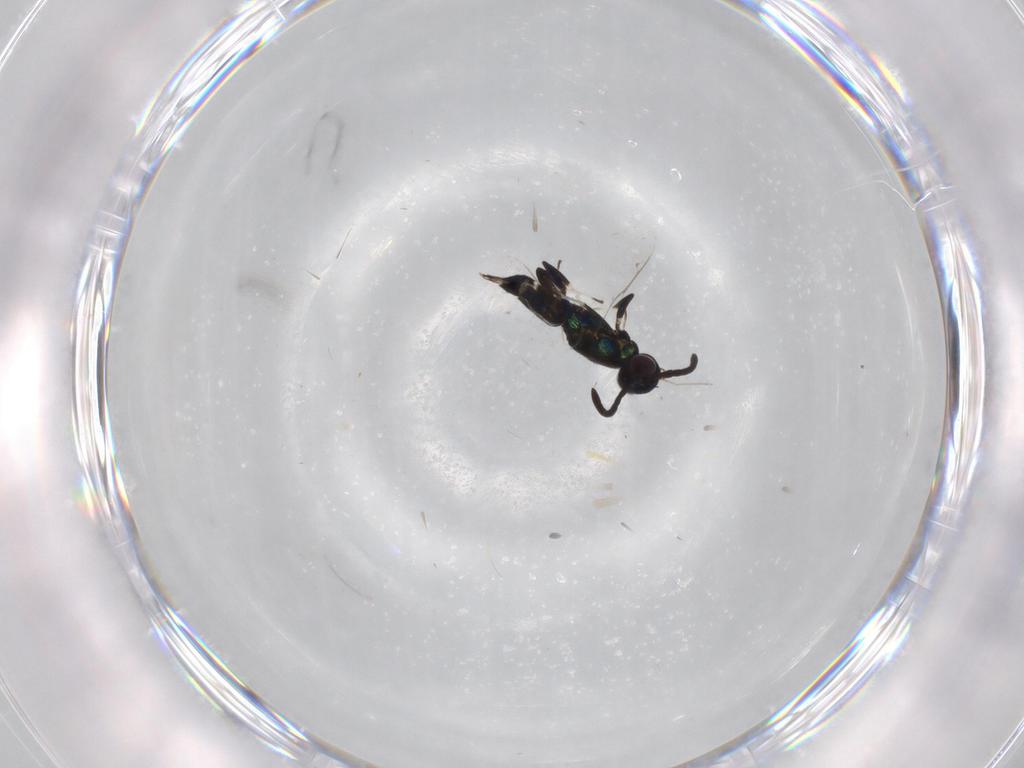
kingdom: Animalia
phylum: Arthropoda
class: Insecta
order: Hymenoptera
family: Eupelmidae
